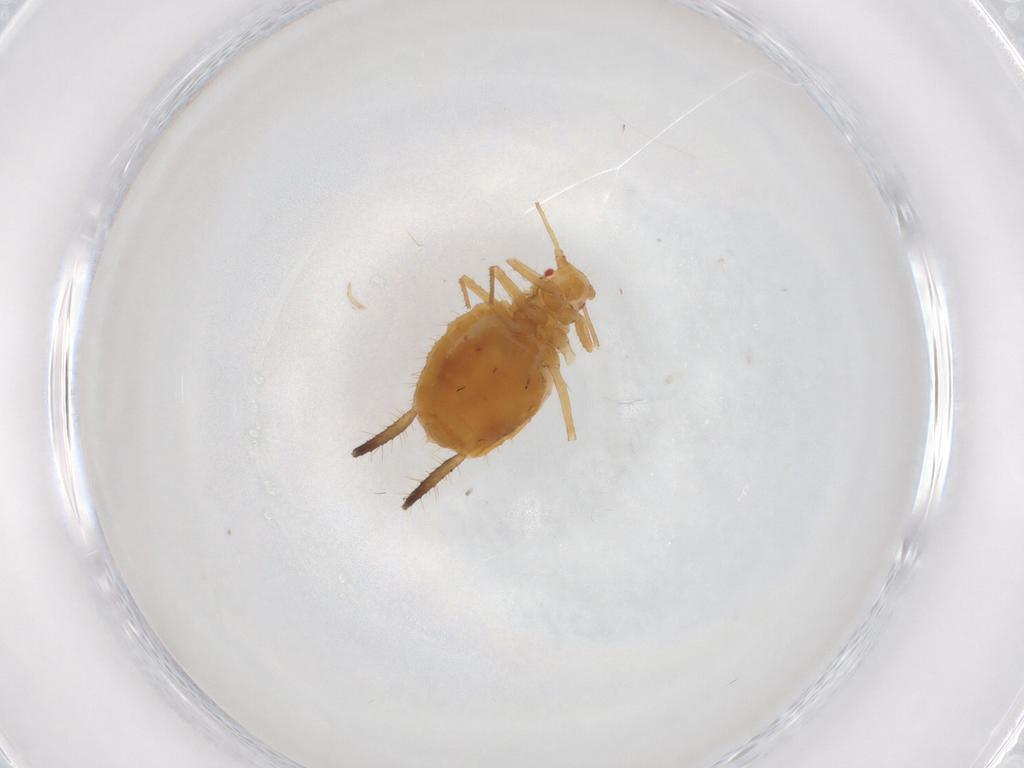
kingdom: Animalia
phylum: Arthropoda
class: Insecta
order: Hemiptera
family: Aphididae
